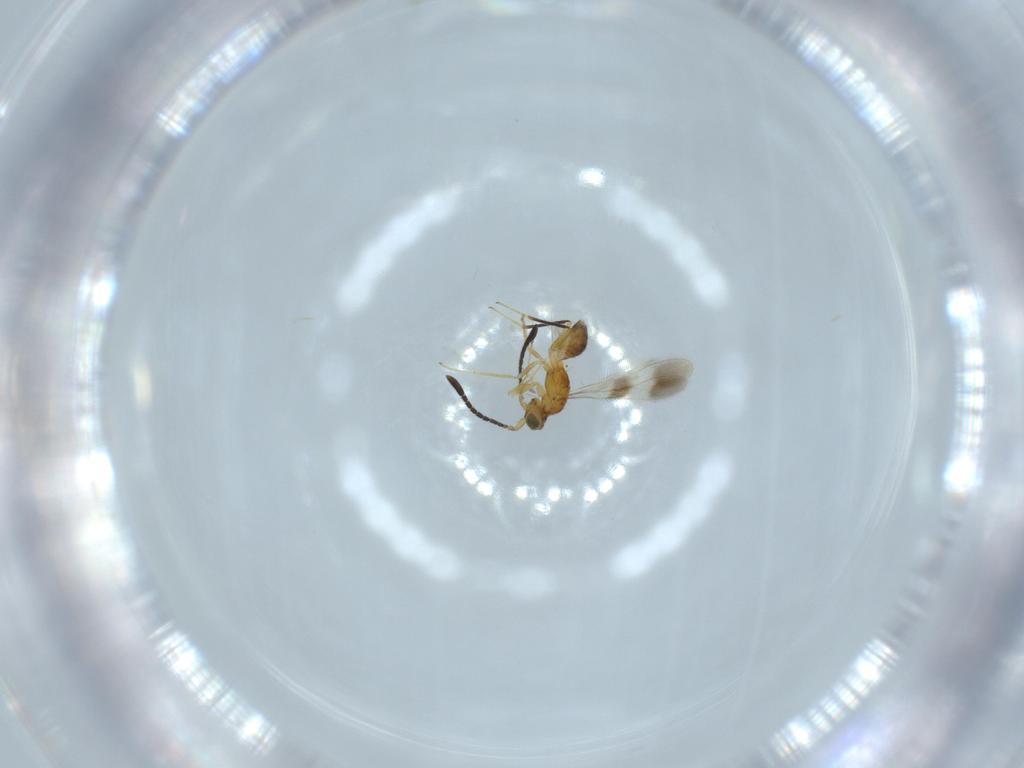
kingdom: Animalia
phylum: Arthropoda
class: Insecta
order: Hymenoptera
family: Mymaridae
